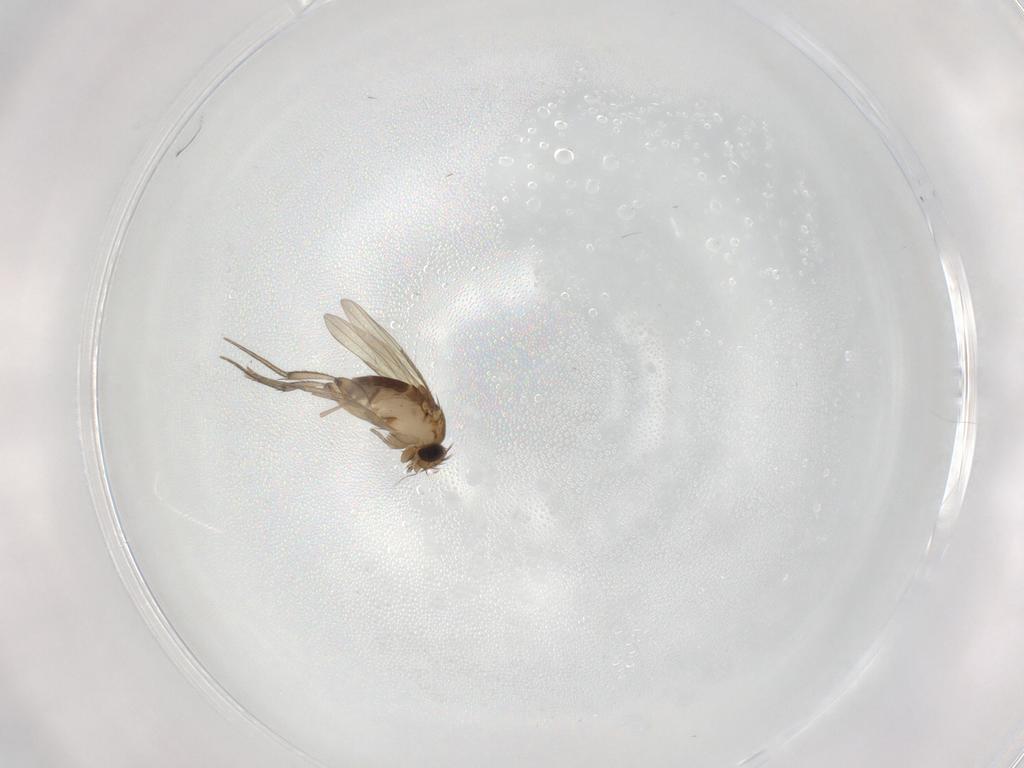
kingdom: Animalia
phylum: Arthropoda
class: Insecta
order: Diptera
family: Phoridae
